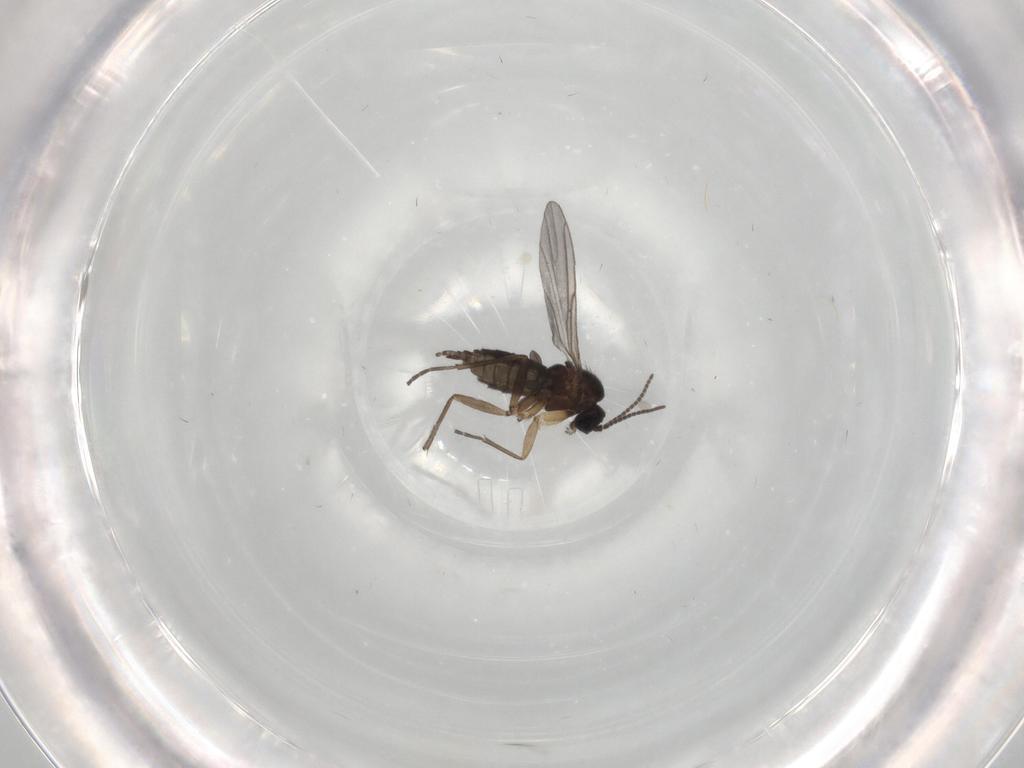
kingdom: Animalia
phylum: Arthropoda
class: Insecta
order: Diptera
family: Sciaridae
